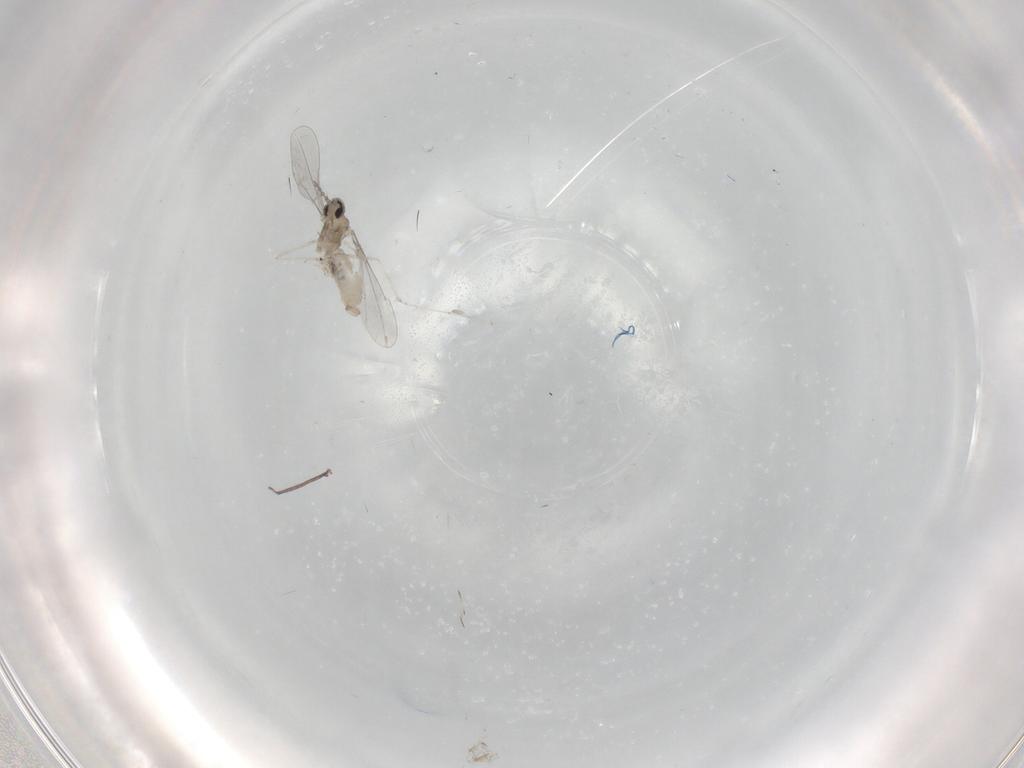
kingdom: Animalia
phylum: Arthropoda
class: Insecta
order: Diptera
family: Cecidomyiidae
